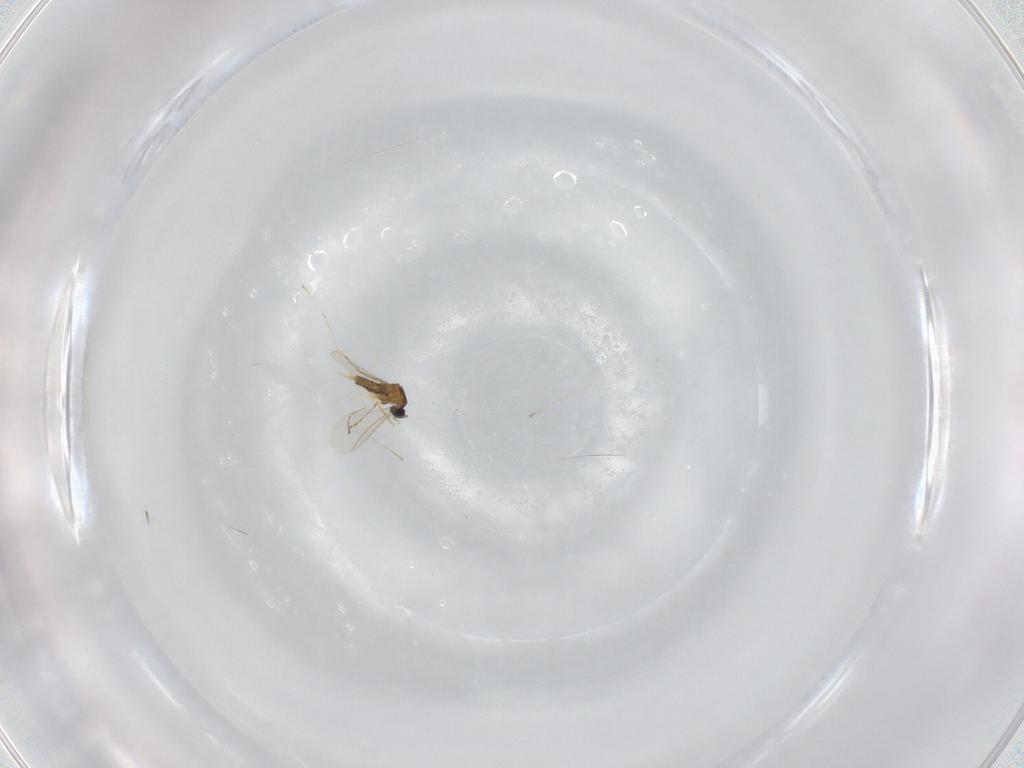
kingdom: Animalia
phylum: Arthropoda
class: Insecta
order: Diptera
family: Cecidomyiidae
